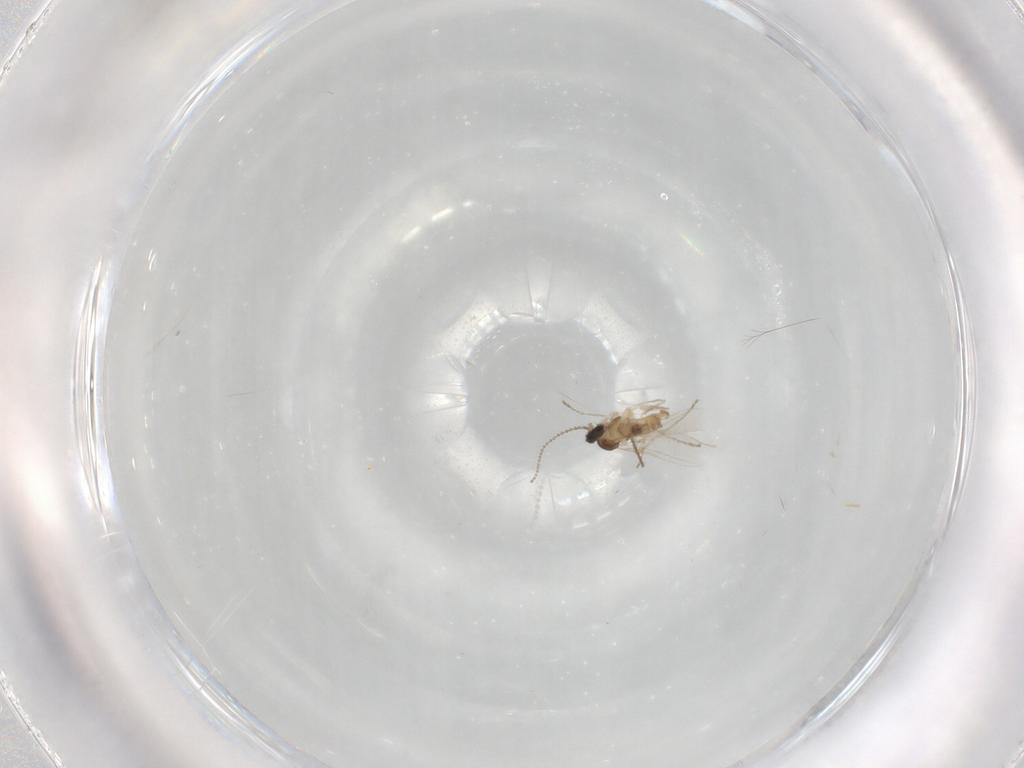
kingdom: Animalia
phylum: Arthropoda
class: Insecta
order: Diptera
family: Cecidomyiidae
